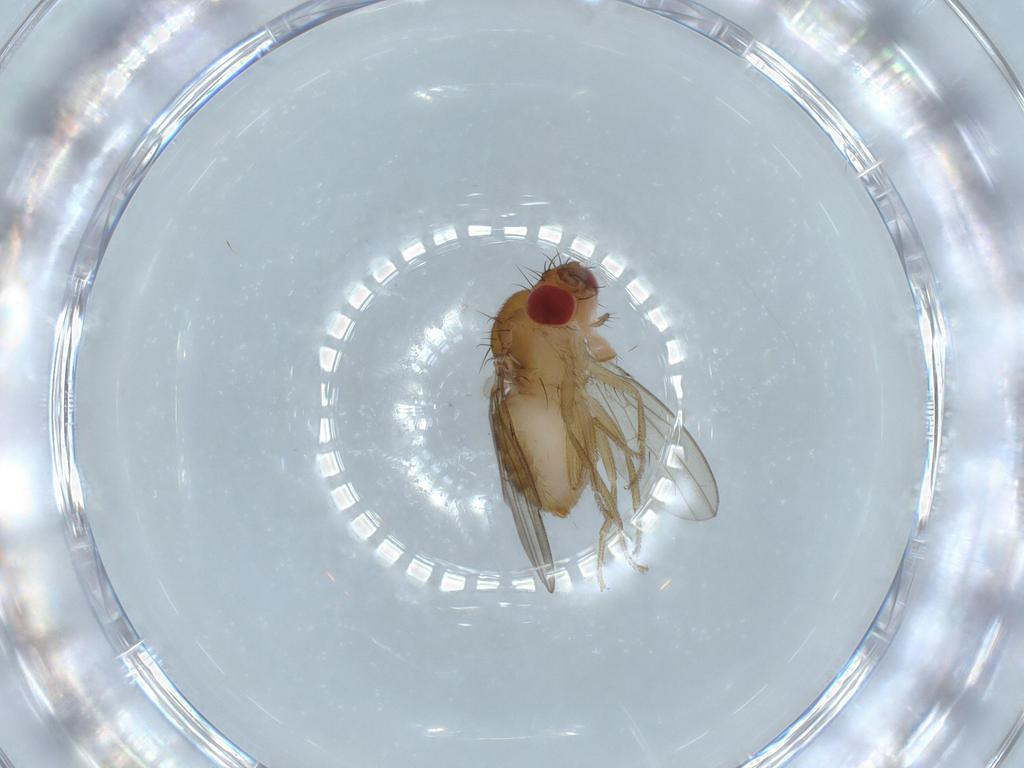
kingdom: Animalia
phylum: Arthropoda
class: Insecta
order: Diptera
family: Drosophilidae
